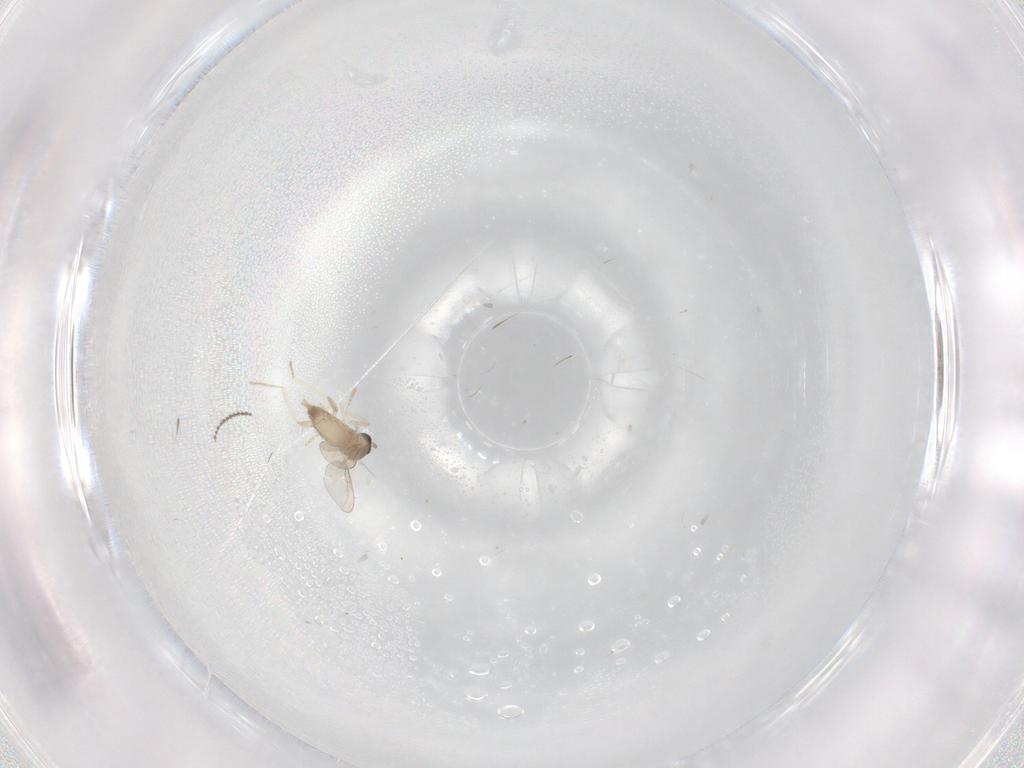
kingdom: Animalia
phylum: Arthropoda
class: Insecta
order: Diptera
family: Cecidomyiidae
